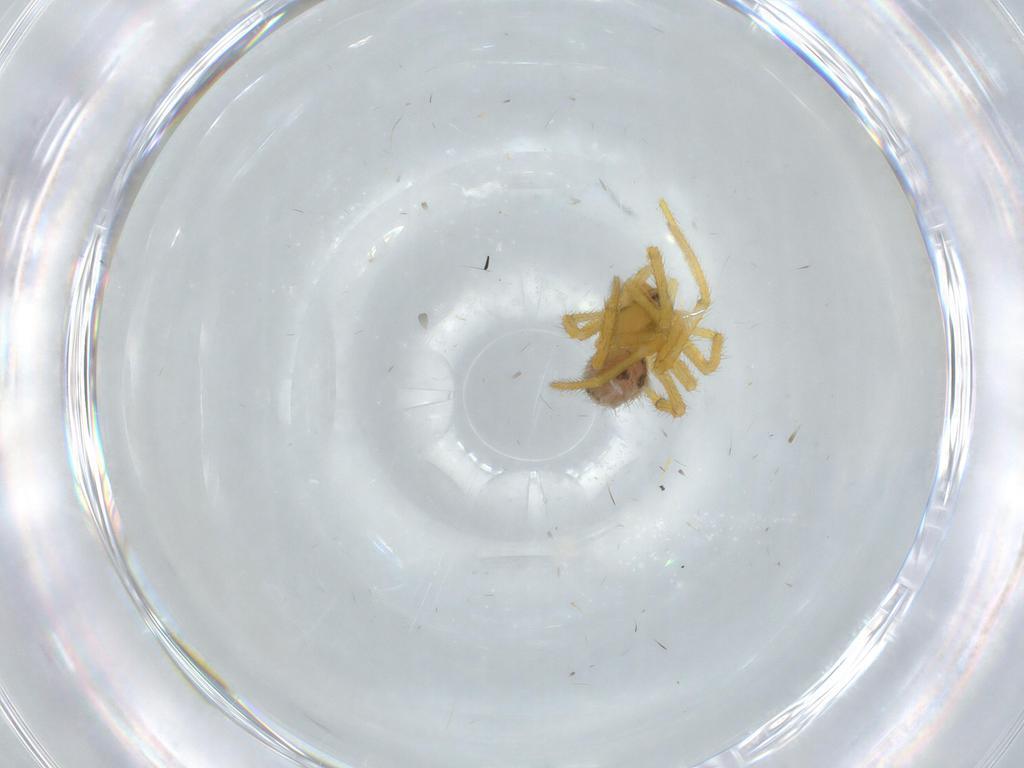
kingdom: Animalia
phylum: Arthropoda
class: Arachnida
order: Araneae
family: Theridiidae
